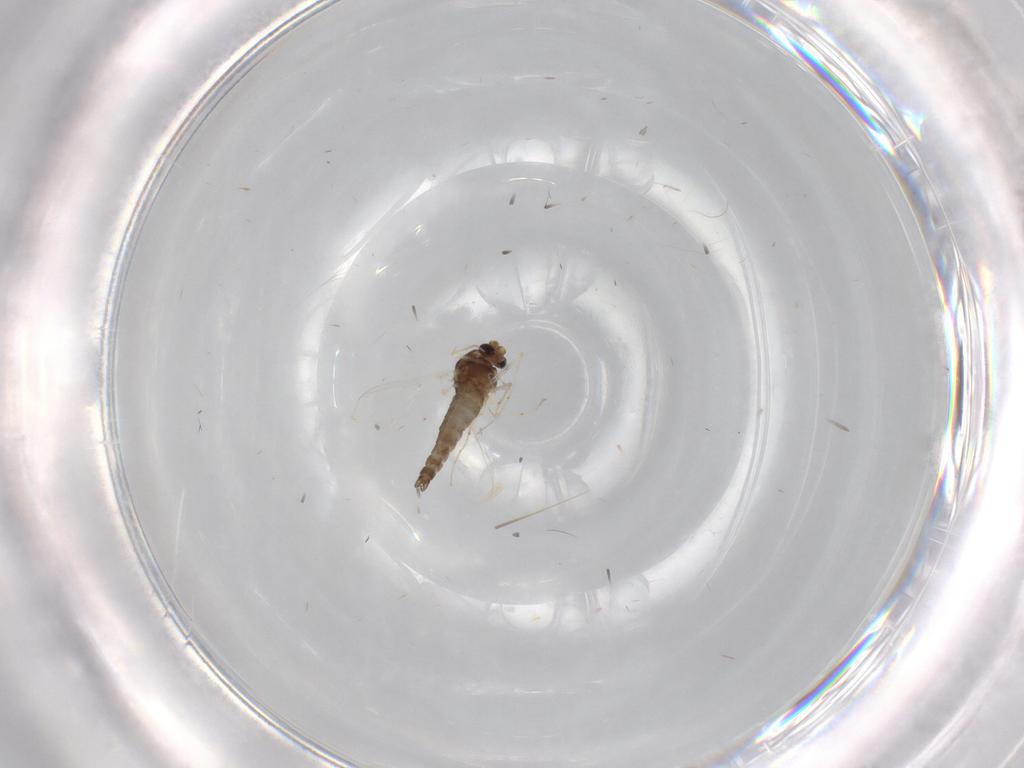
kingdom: Animalia
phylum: Arthropoda
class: Insecta
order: Diptera
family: Chironomidae
